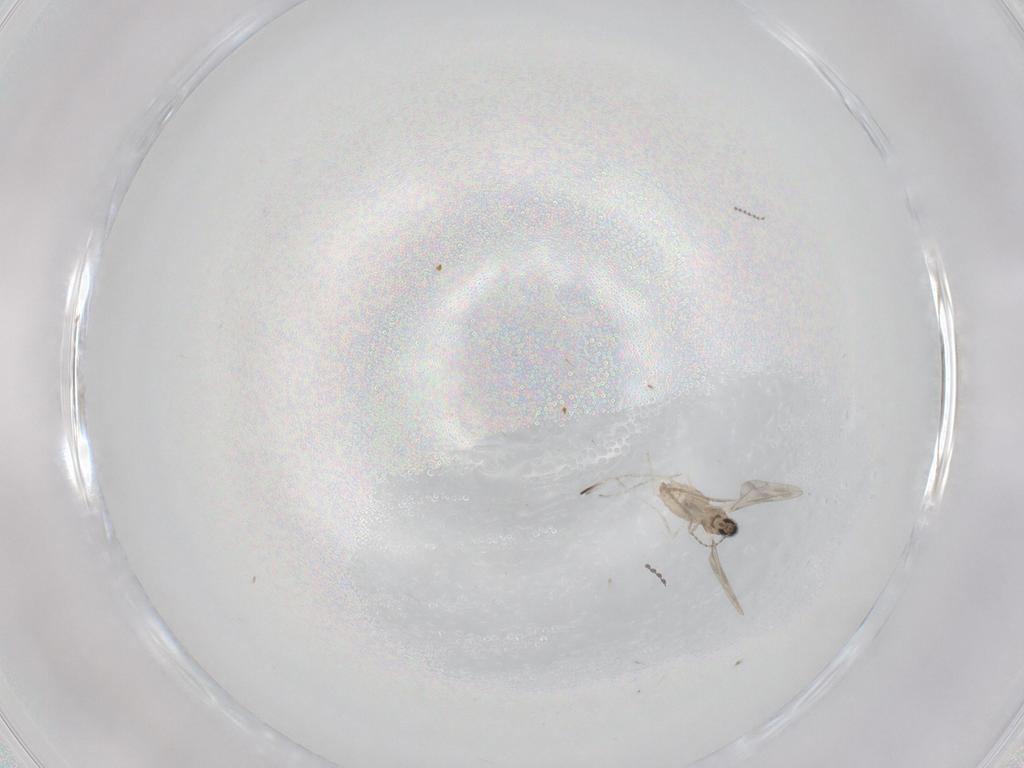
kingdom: Animalia
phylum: Arthropoda
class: Insecta
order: Diptera
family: Cecidomyiidae
